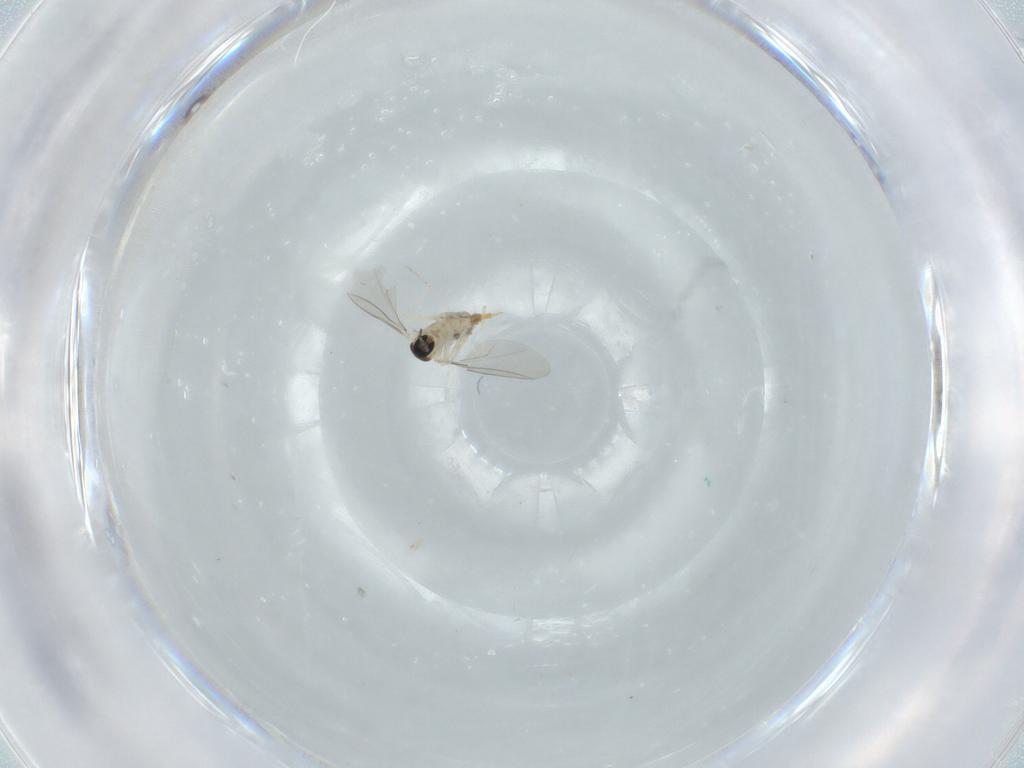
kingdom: Animalia
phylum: Arthropoda
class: Insecta
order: Diptera
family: Cecidomyiidae
